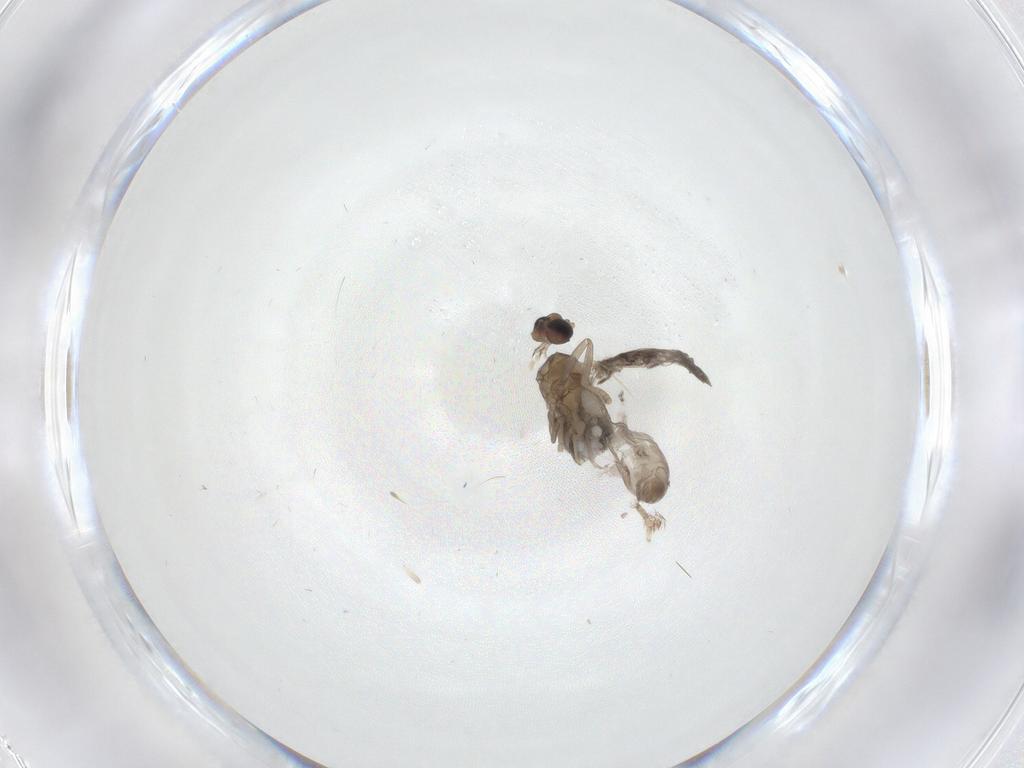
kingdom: Animalia
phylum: Arthropoda
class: Insecta
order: Diptera
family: Cecidomyiidae
